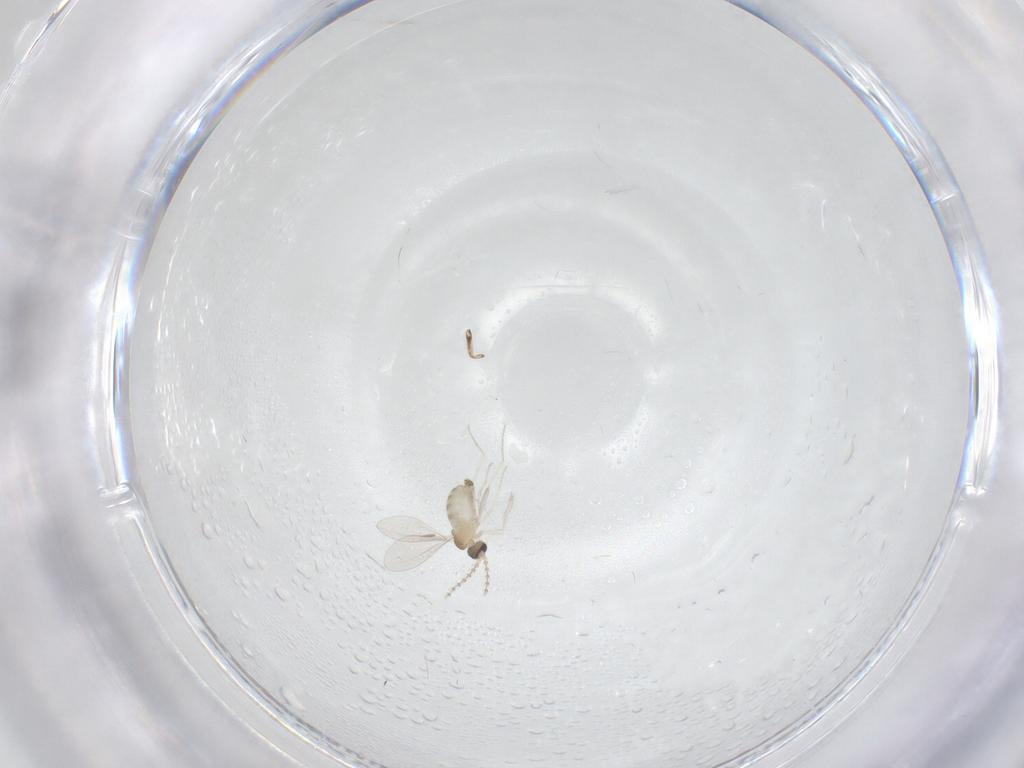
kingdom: Animalia
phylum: Arthropoda
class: Insecta
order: Diptera
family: Cecidomyiidae
